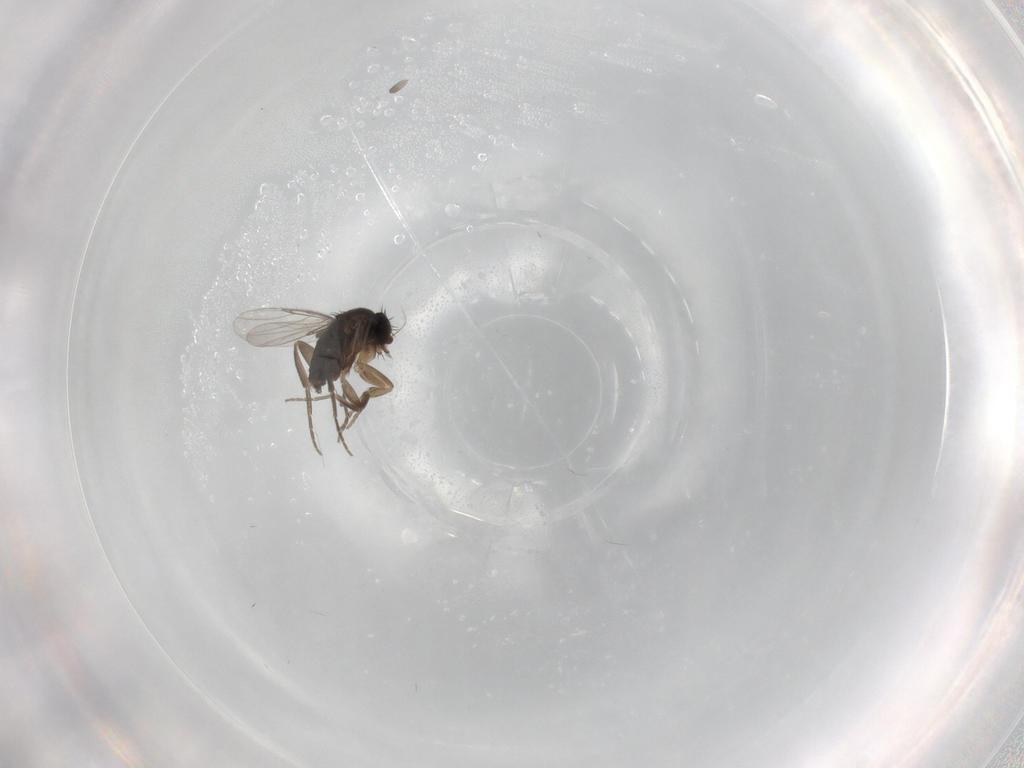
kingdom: Animalia
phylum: Arthropoda
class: Insecta
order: Diptera
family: Phoridae
